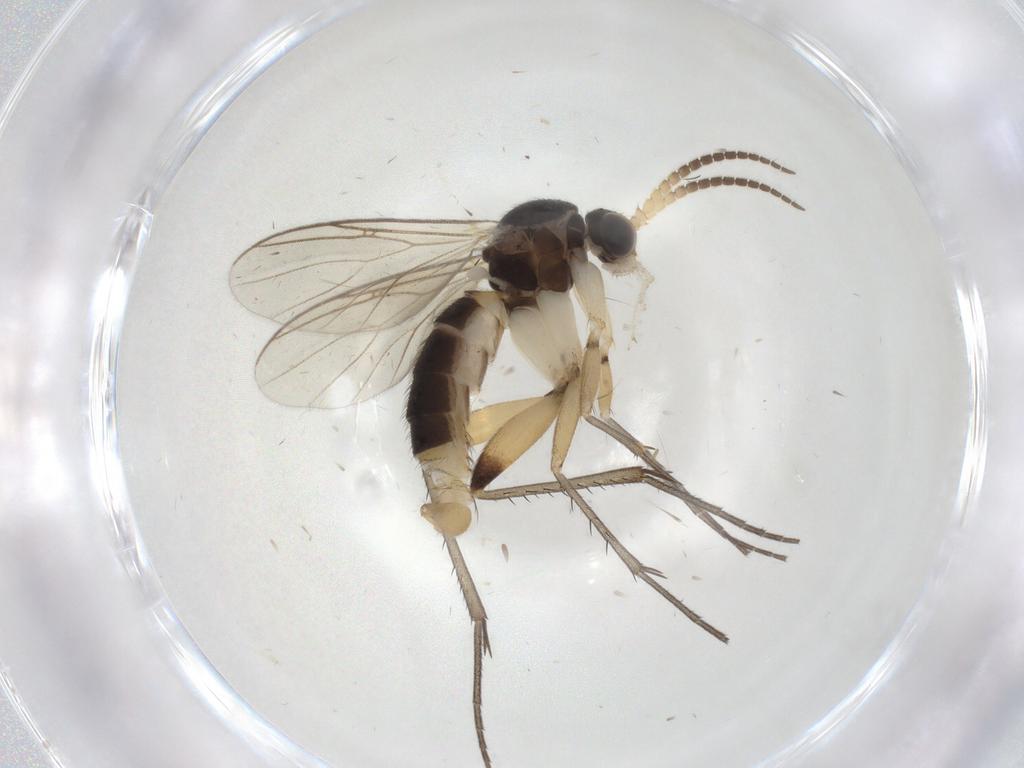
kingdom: Animalia
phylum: Arthropoda
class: Insecta
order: Diptera
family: Mycetophilidae
